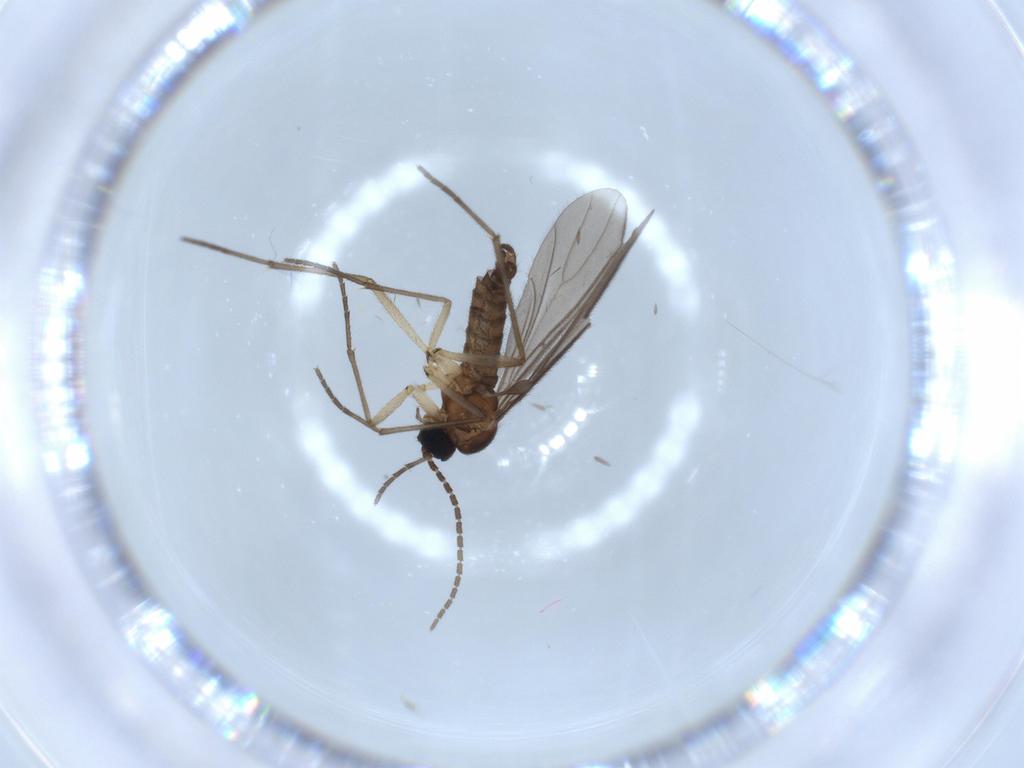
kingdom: Animalia
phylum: Arthropoda
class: Insecta
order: Diptera
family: Sciaridae
